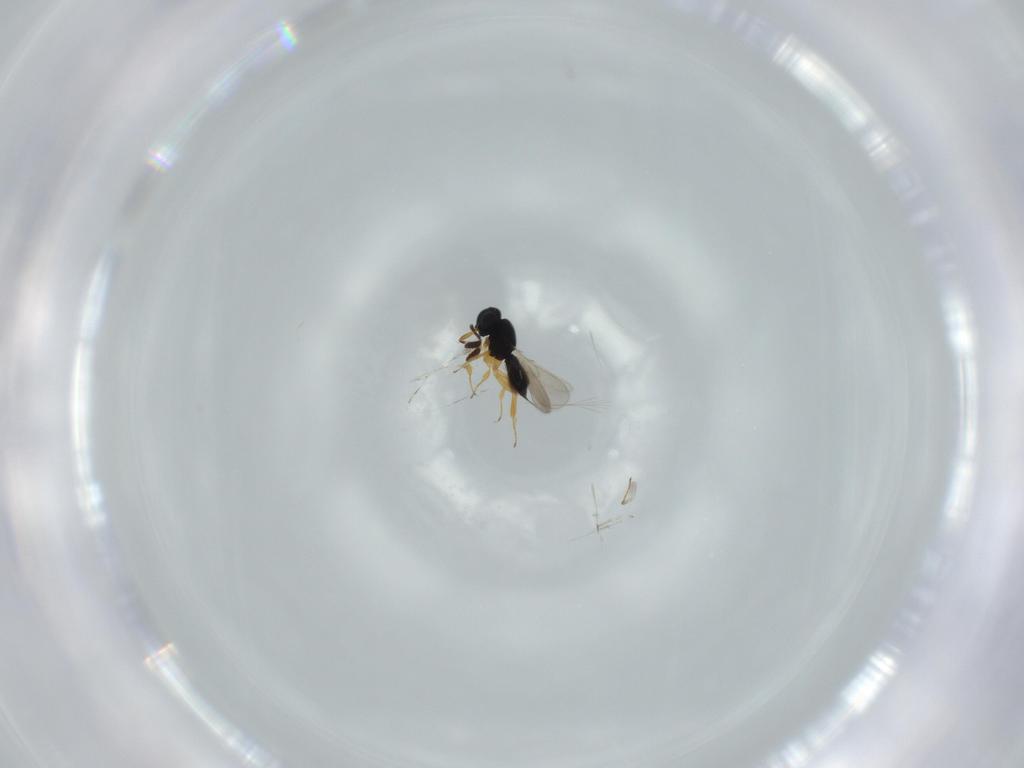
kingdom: Animalia
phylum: Arthropoda
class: Insecta
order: Hymenoptera
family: Scelionidae
